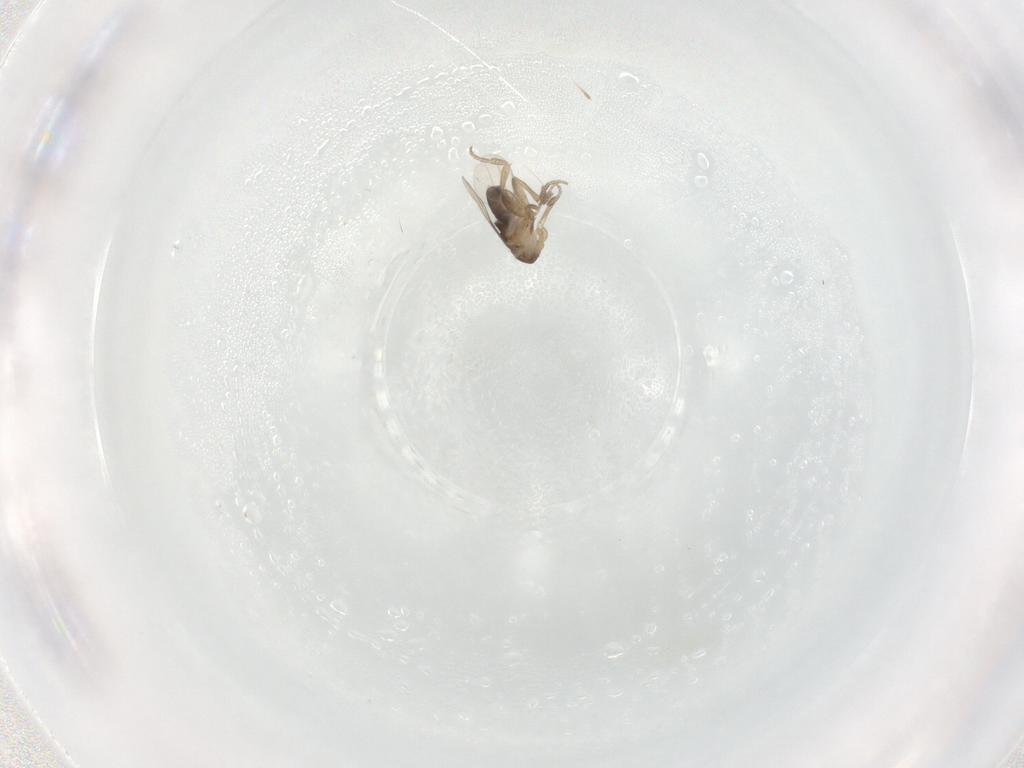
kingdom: Animalia
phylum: Arthropoda
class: Insecta
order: Diptera
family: Phoridae
